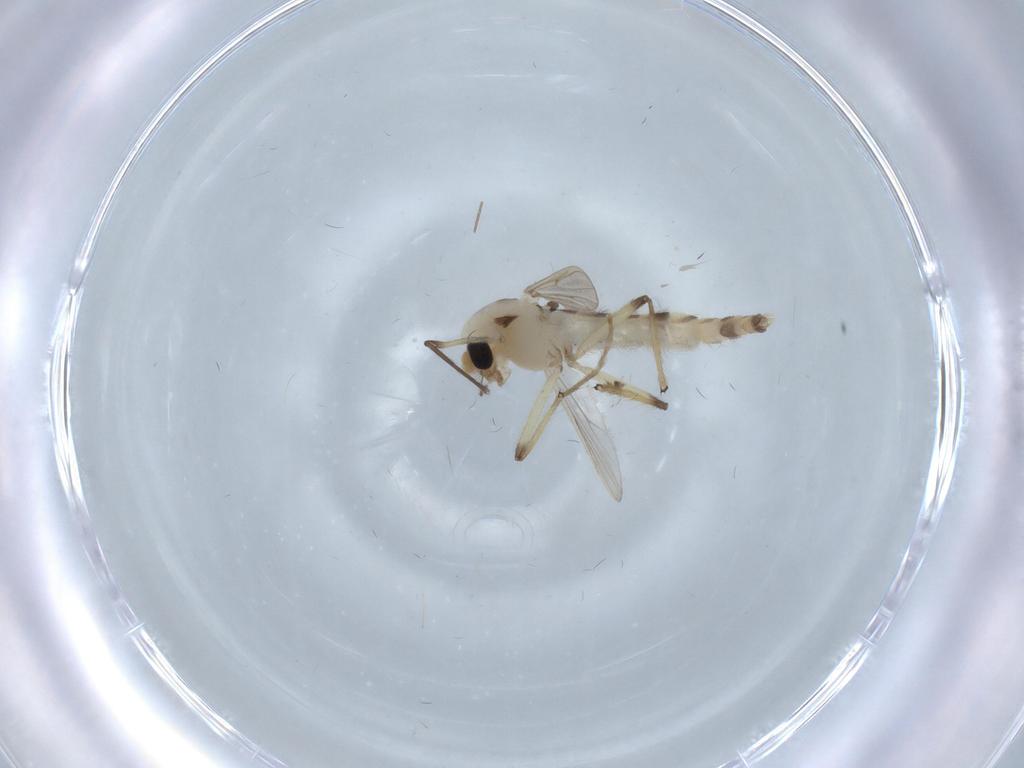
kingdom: Animalia
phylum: Arthropoda
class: Insecta
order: Diptera
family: Chironomidae
